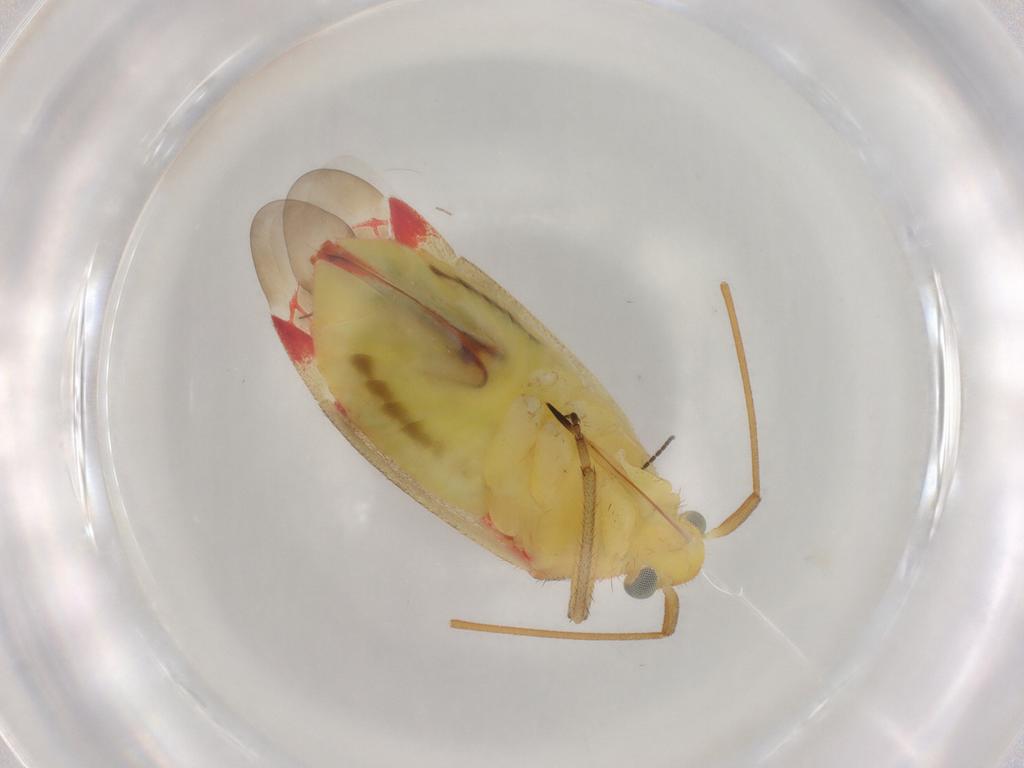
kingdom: Animalia
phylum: Arthropoda
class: Insecta
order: Hemiptera
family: Miridae
